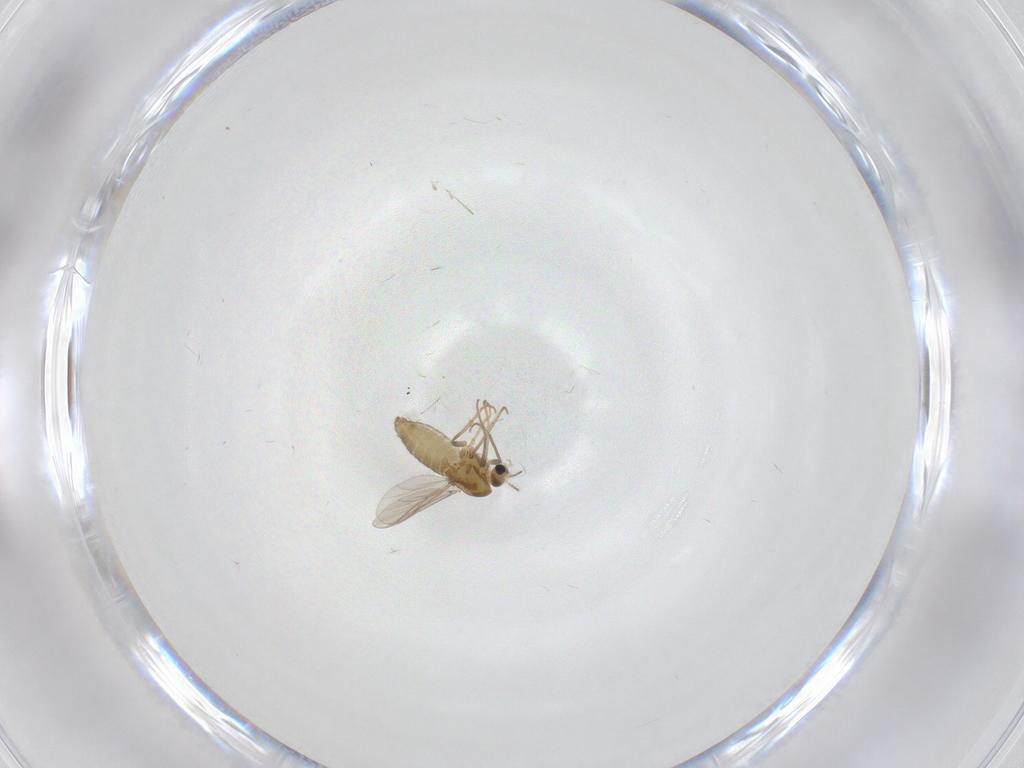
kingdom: Animalia
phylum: Arthropoda
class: Insecta
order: Diptera
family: Chironomidae
